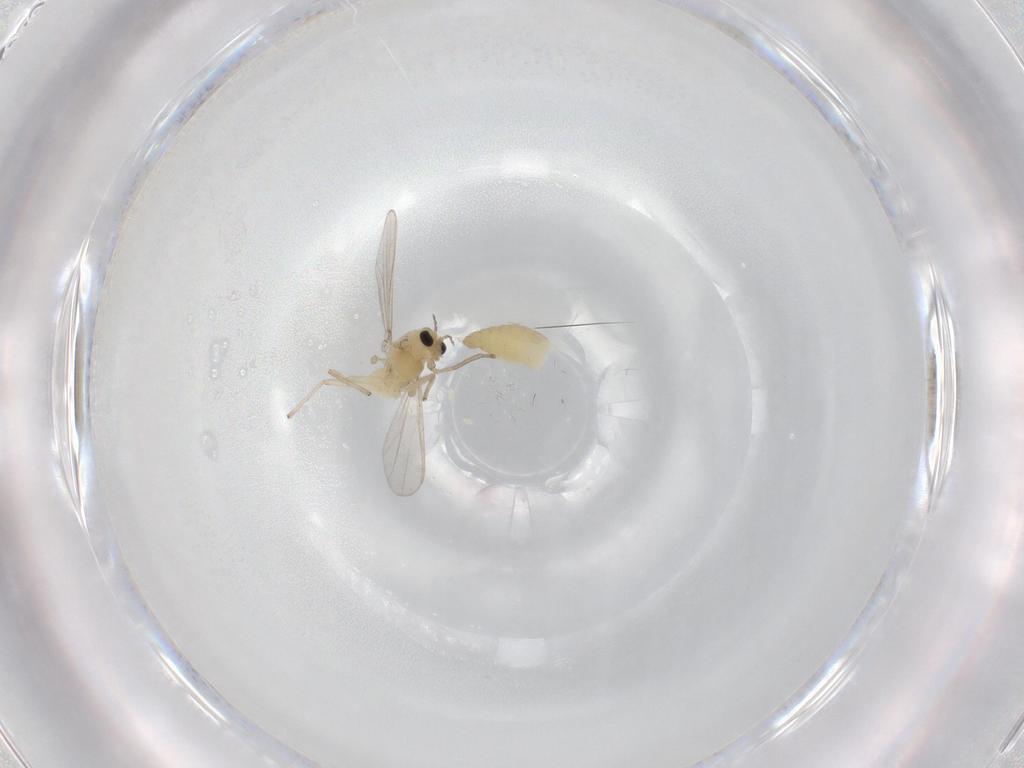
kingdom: Animalia
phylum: Arthropoda
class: Insecta
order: Diptera
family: Chironomidae
